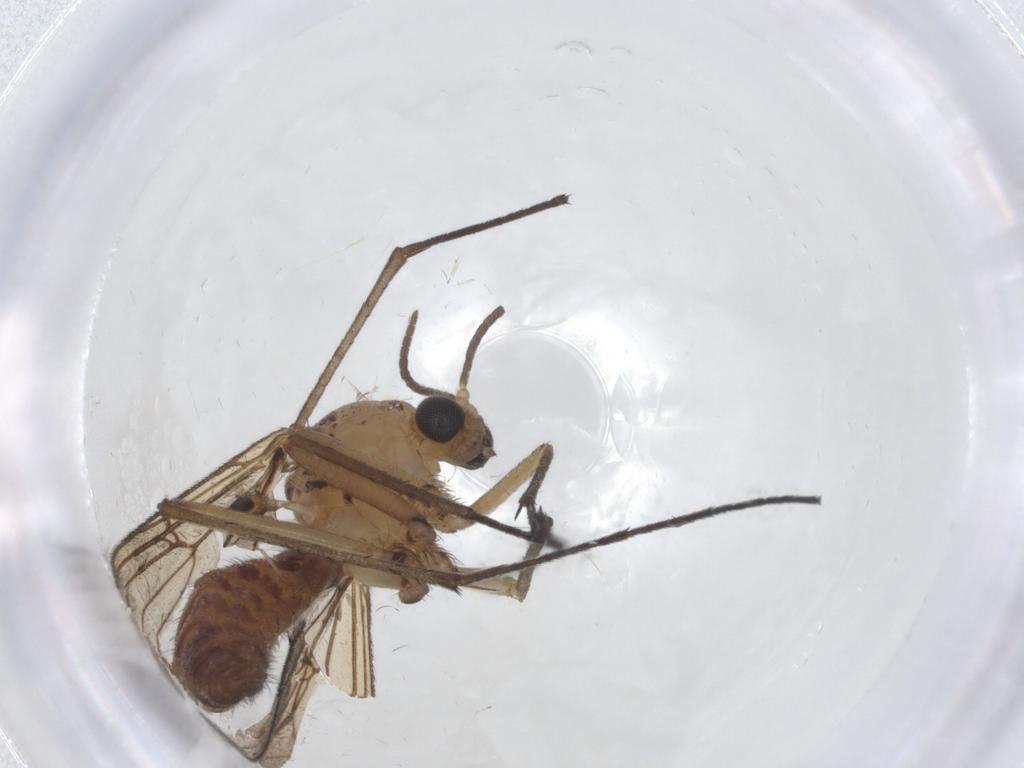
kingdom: Animalia
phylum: Arthropoda
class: Insecta
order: Diptera
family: Mycetophilidae
